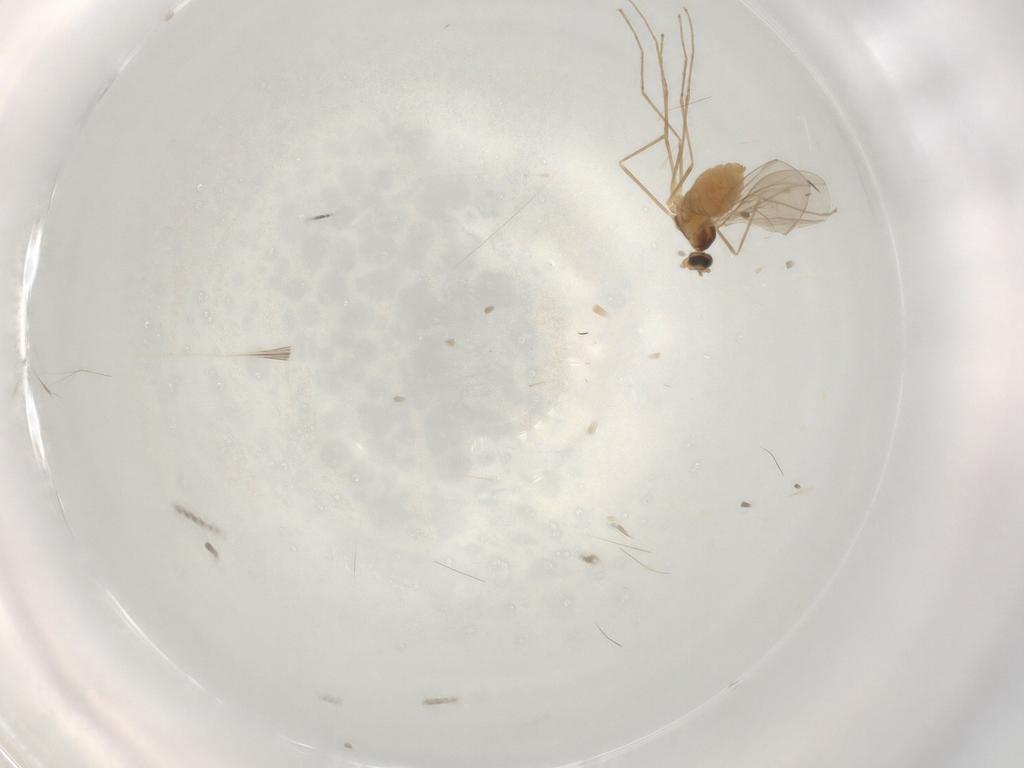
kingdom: Animalia
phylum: Arthropoda
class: Insecta
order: Diptera
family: Cecidomyiidae
